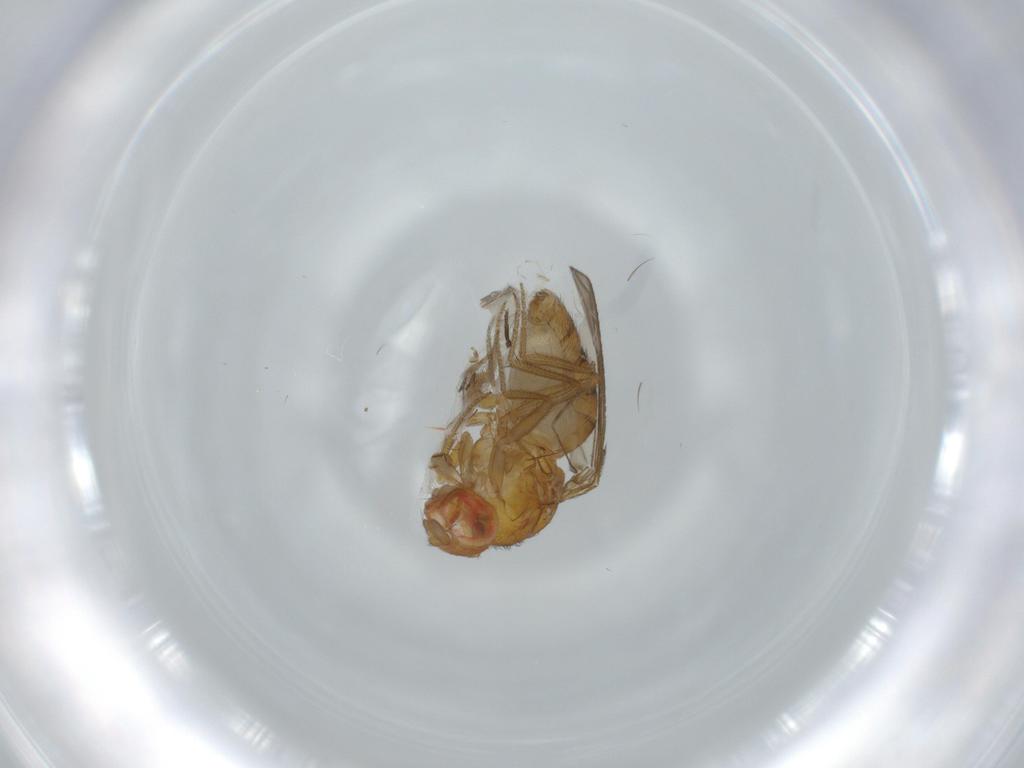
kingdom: Animalia
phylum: Arthropoda
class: Insecta
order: Diptera
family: Drosophilidae
